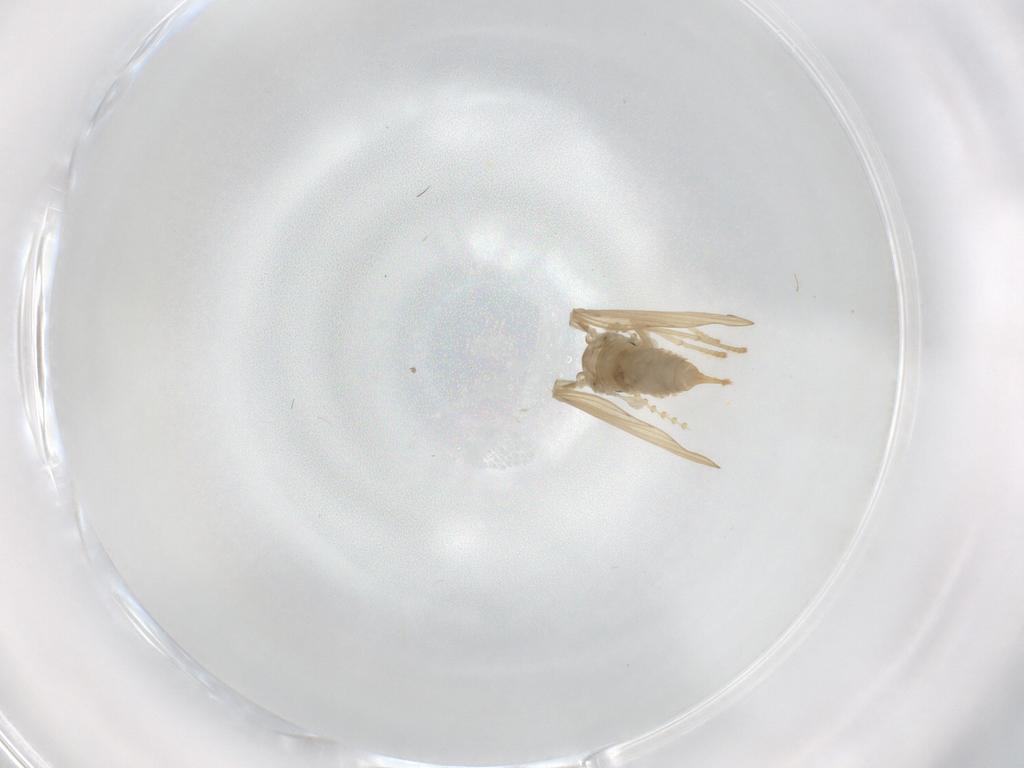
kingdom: Animalia
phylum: Arthropoda
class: Insecta
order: Diptera
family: Psychodidae
